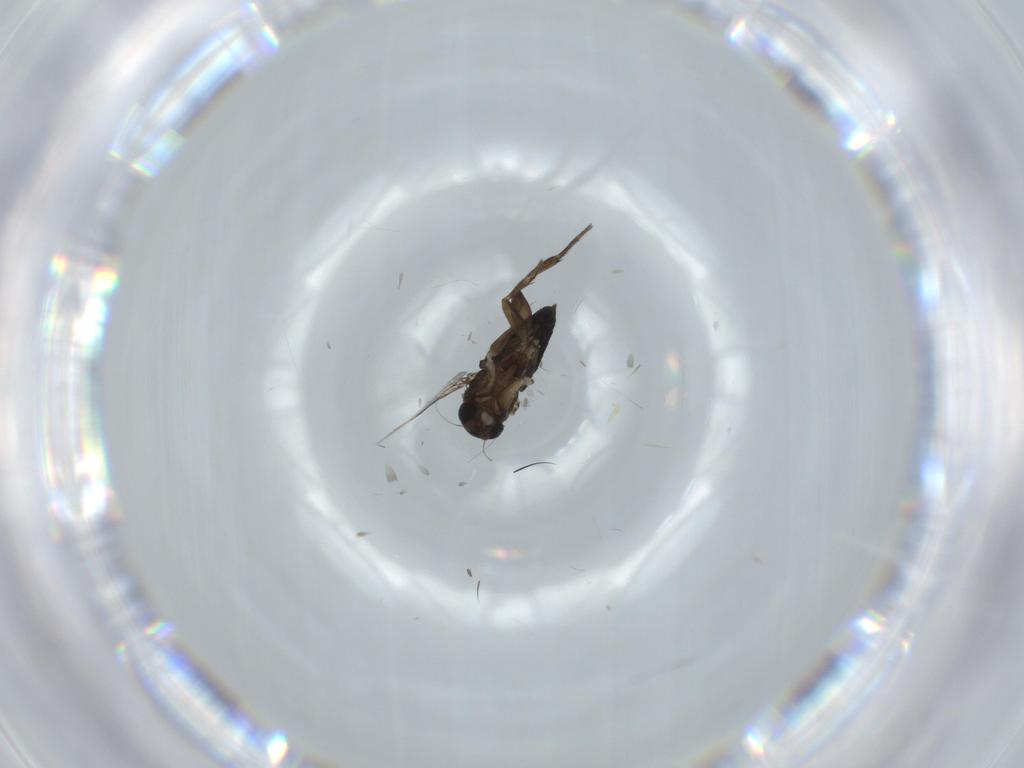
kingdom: Animalia
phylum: Arthropoda
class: Insecta
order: Diptera
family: Phoridae
